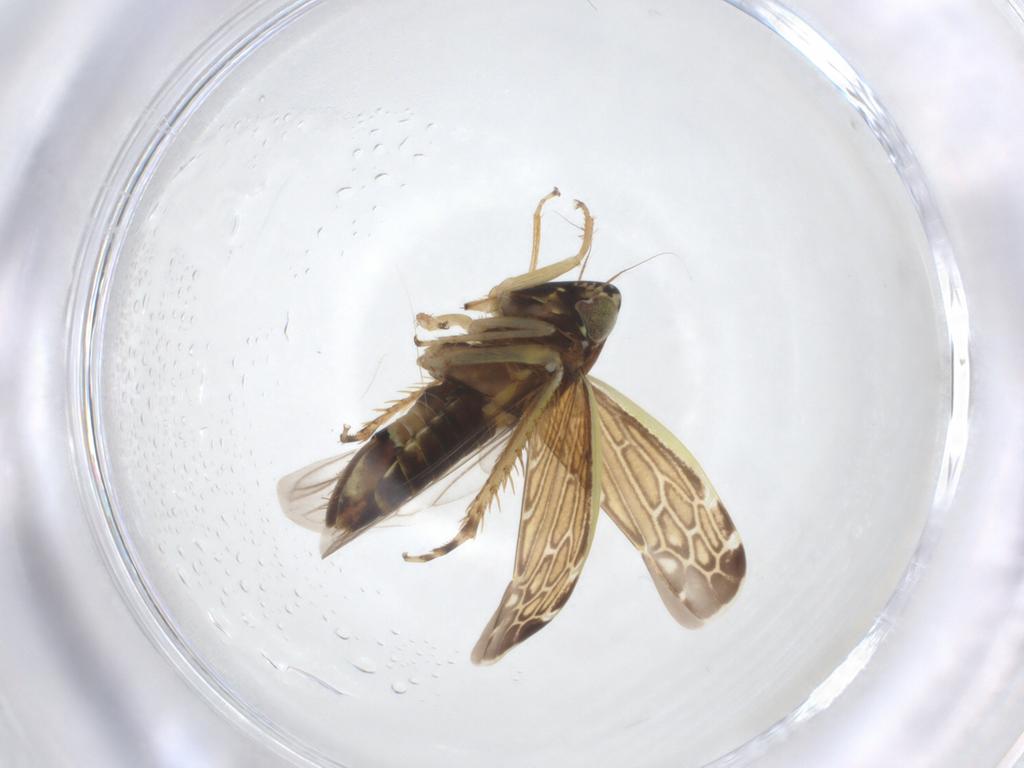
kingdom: Animalia
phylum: Arthropoda
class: Insecta
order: Hemiptera
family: Cicadellidae
